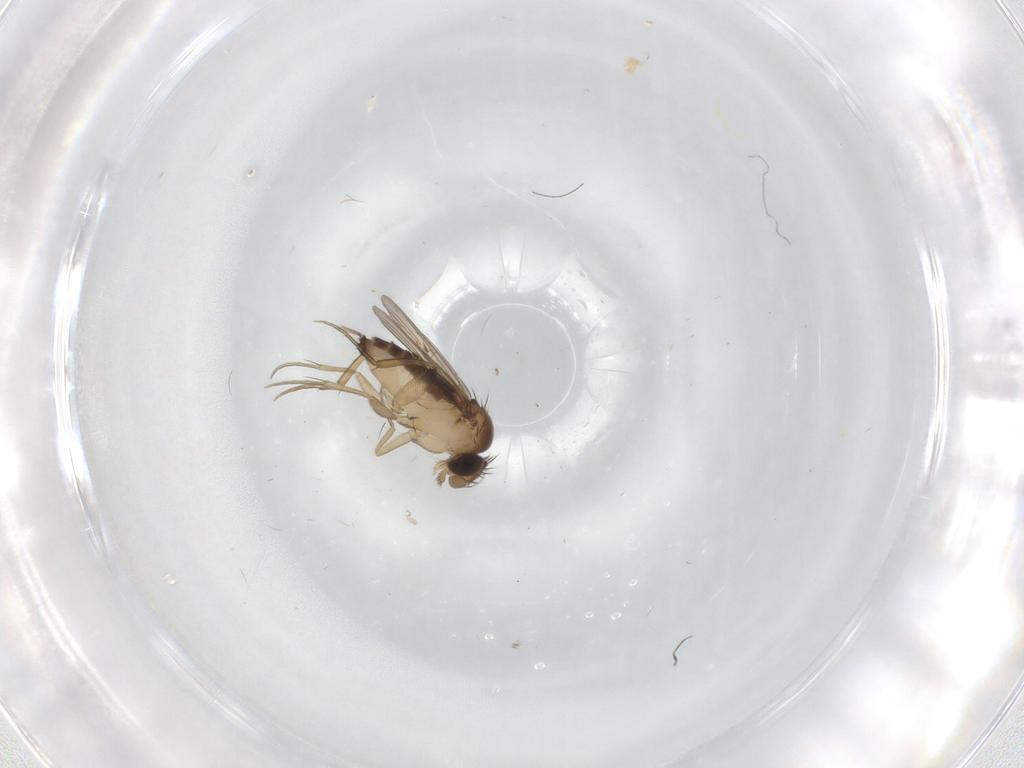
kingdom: Animalia
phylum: Arthropoda
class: Insecta
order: Diptera
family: Phoridae
